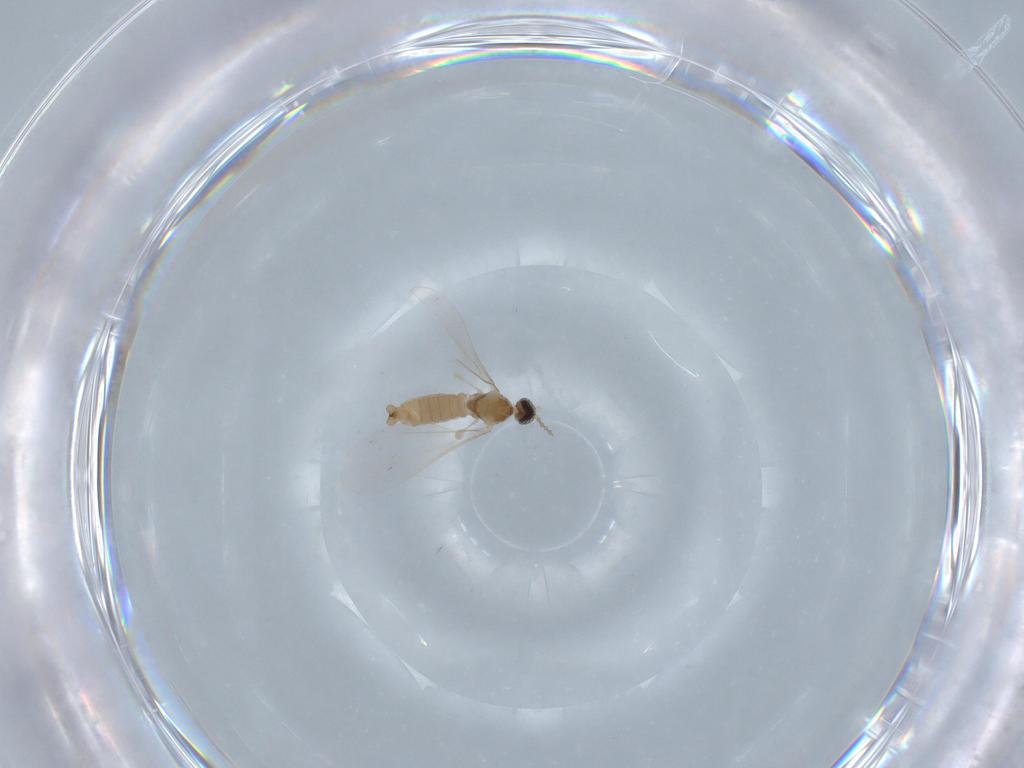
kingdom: Animalia
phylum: Arthropoda
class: Insecta
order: Diptera
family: Cecidomyiidae
